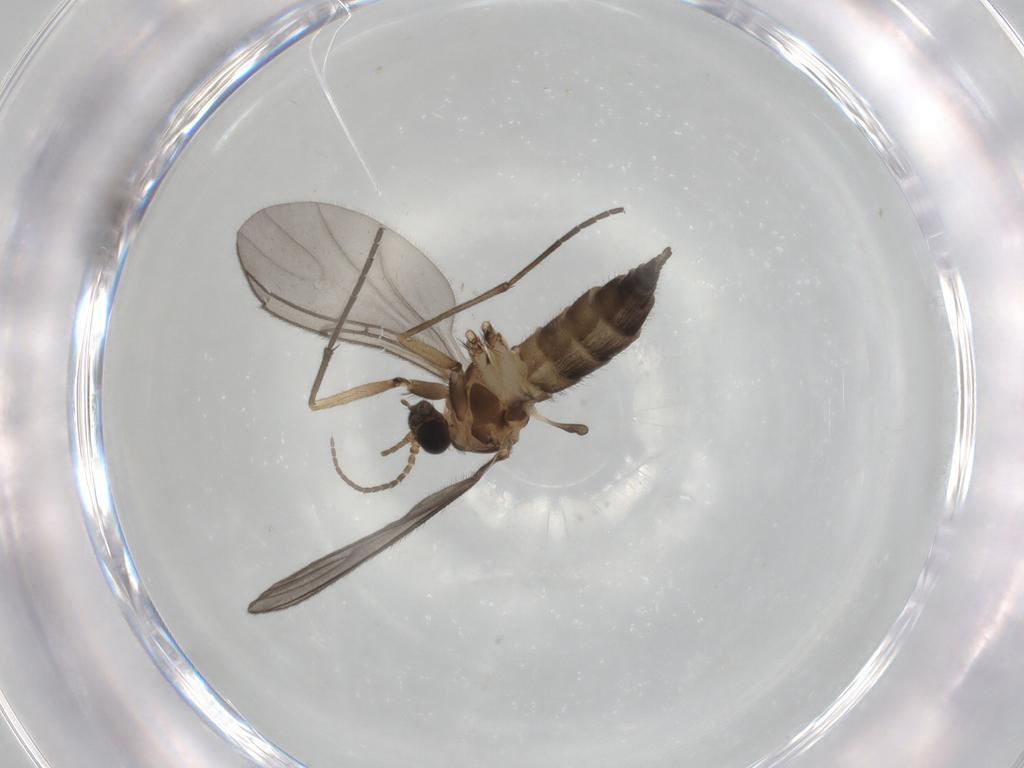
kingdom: Animalia
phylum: Arthropoda
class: Insecta
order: Diptera
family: Sciaridae
